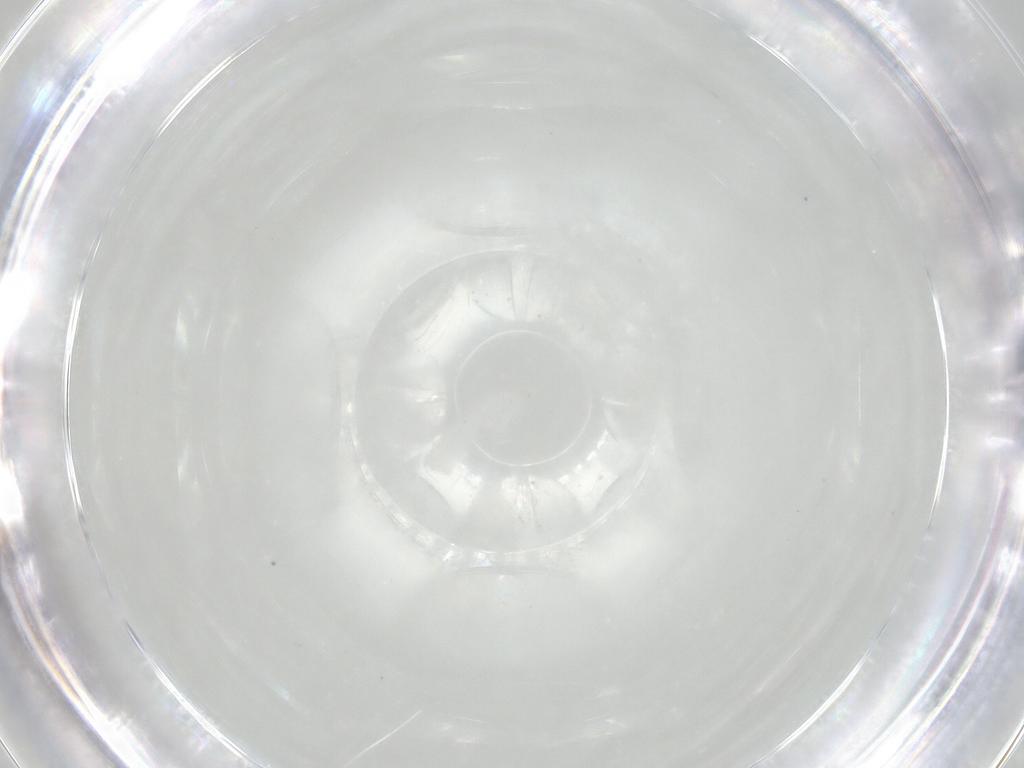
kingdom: Animalia
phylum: Arthropoda
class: Arachnida
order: Trombidiformes
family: Erythraeidae
